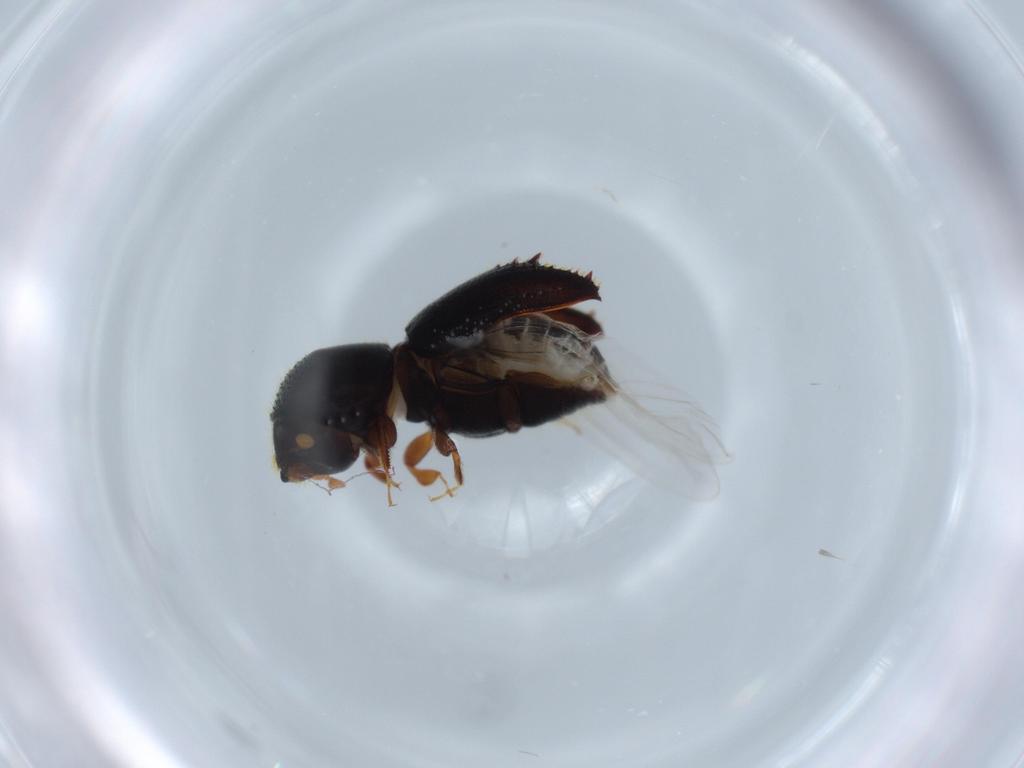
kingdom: Animalia
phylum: Arthropoda
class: Insecta
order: Coleoptera
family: Curculionidae
